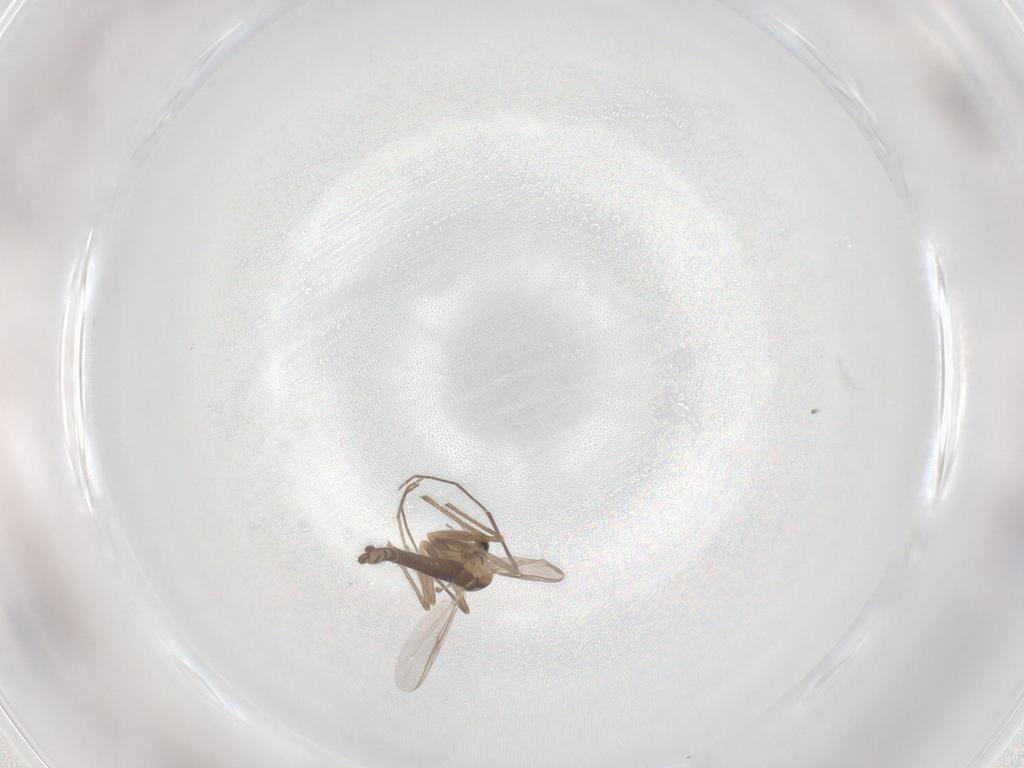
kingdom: Animalia
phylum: Arthropoda
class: Insecta
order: Diptera
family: Chironomidae
